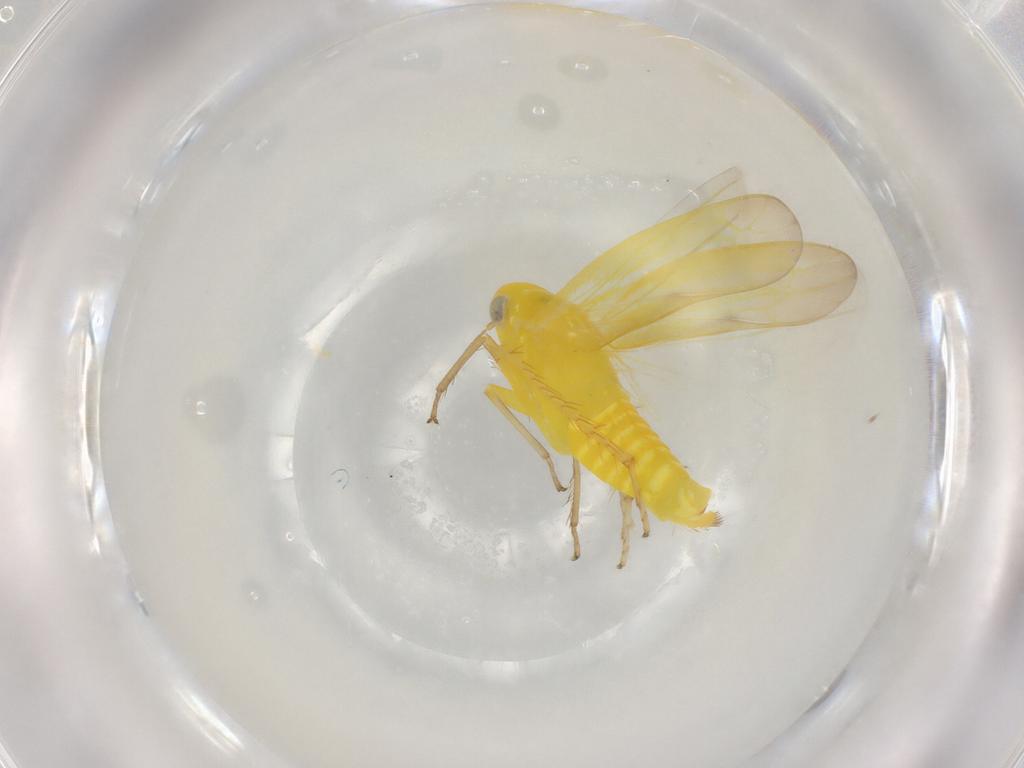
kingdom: Animalia
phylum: Arthropoda
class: Insecta
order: Hemiptera
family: Cicadellidae
